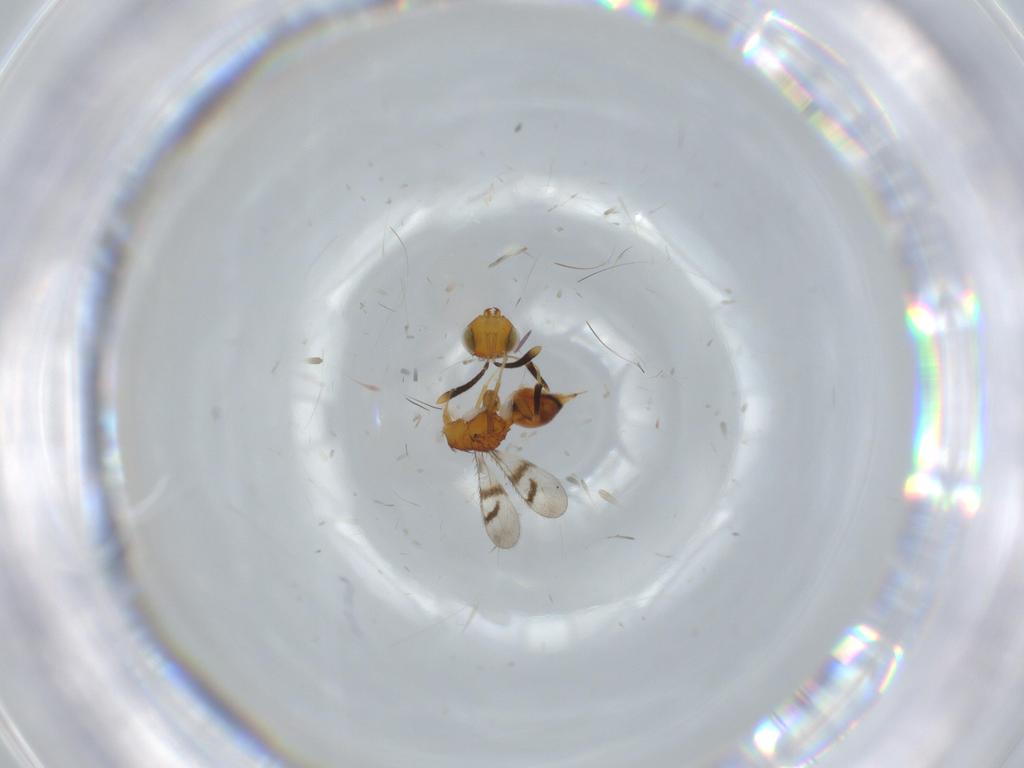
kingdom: Animalia
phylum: Arthropoda
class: Insecta
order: Hymenoptera
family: Vespidae
